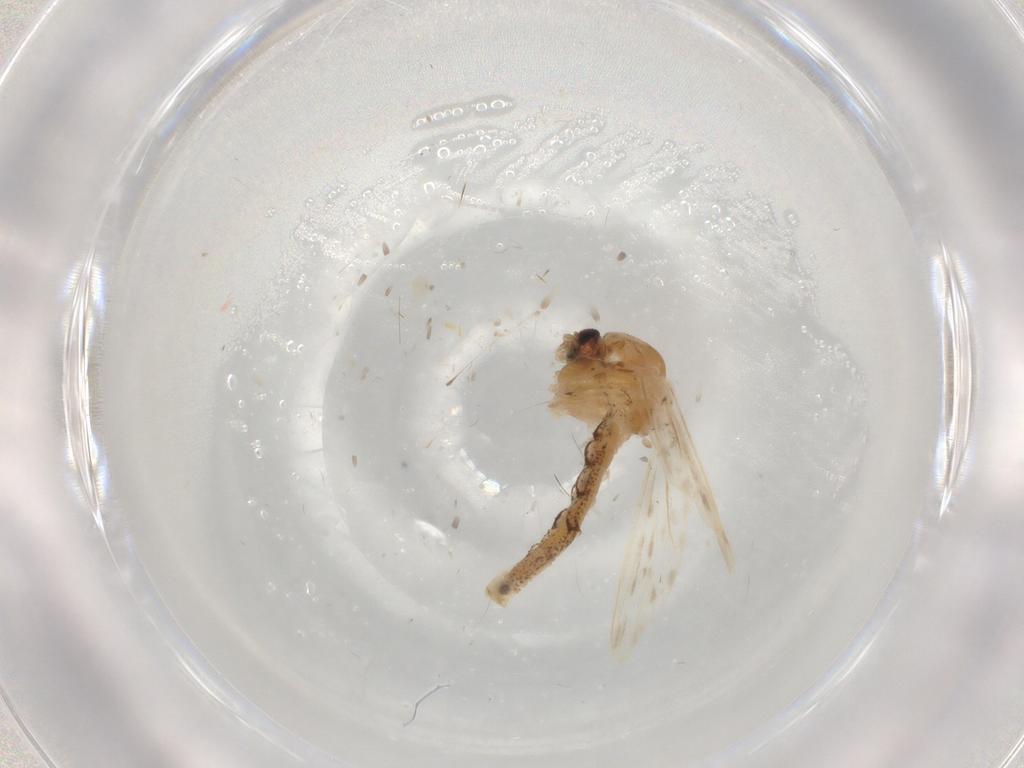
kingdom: Animalia
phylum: Arthropoda
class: Insecta
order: Diptera
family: Chaoboridae
